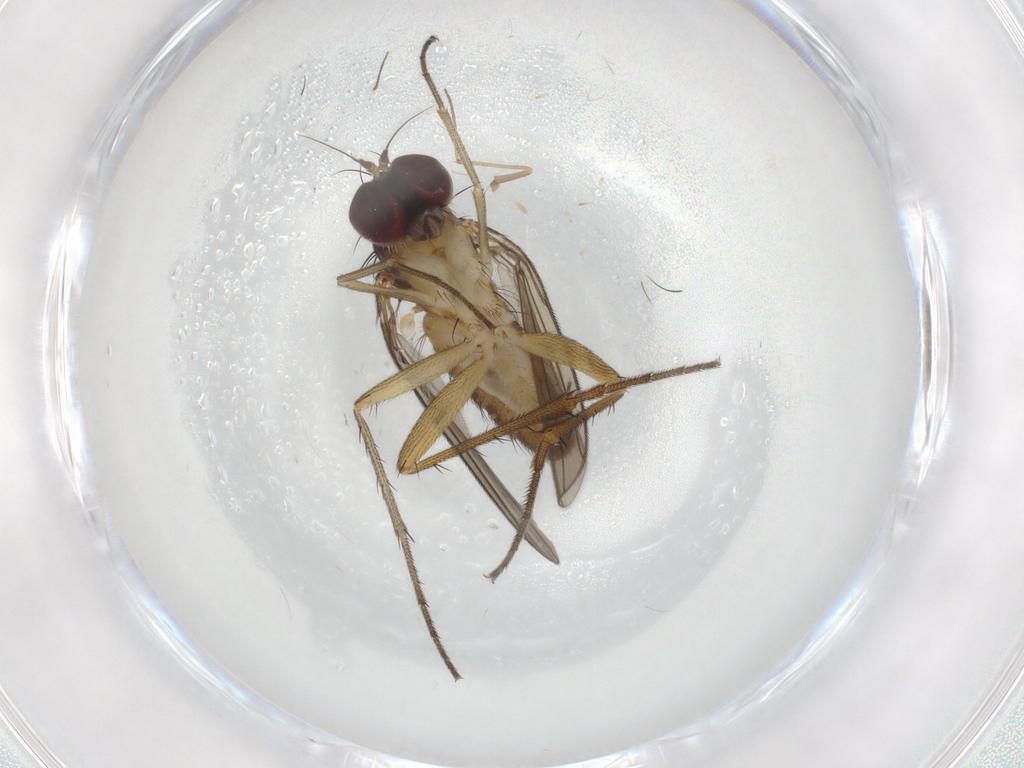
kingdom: Animalia
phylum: Arthropoda
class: Insecta
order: Diptera
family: Dolichopodidae
